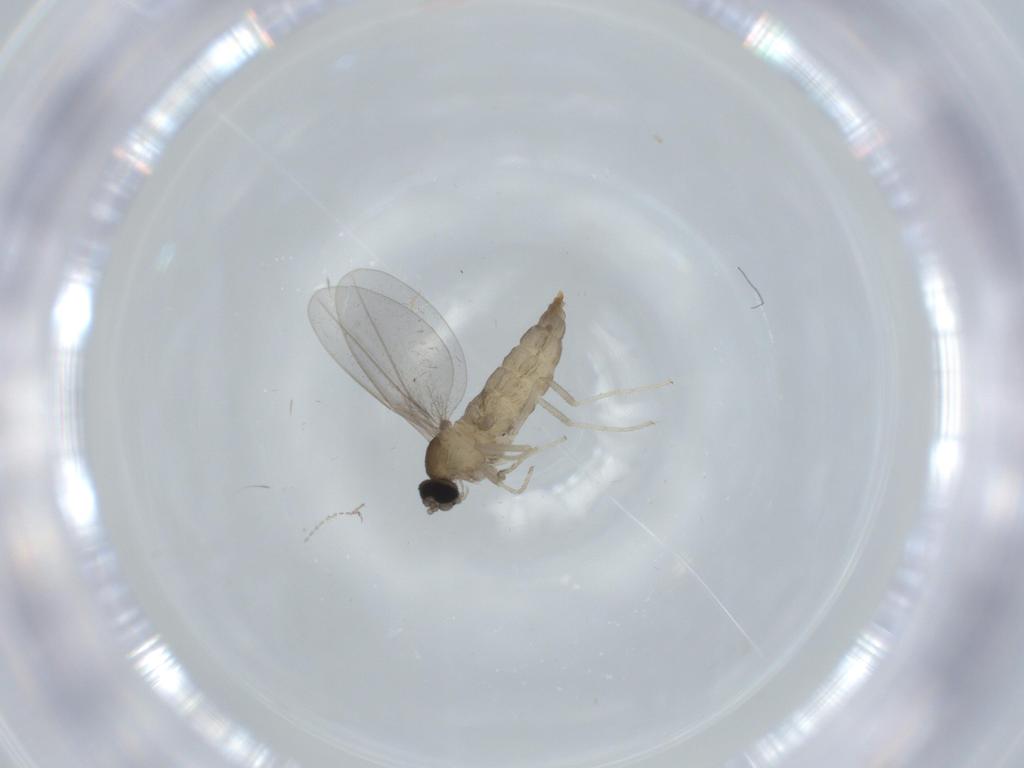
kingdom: Animalia
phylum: Arthropoda
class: Insecta
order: Diptera
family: Cecidomyiidae
